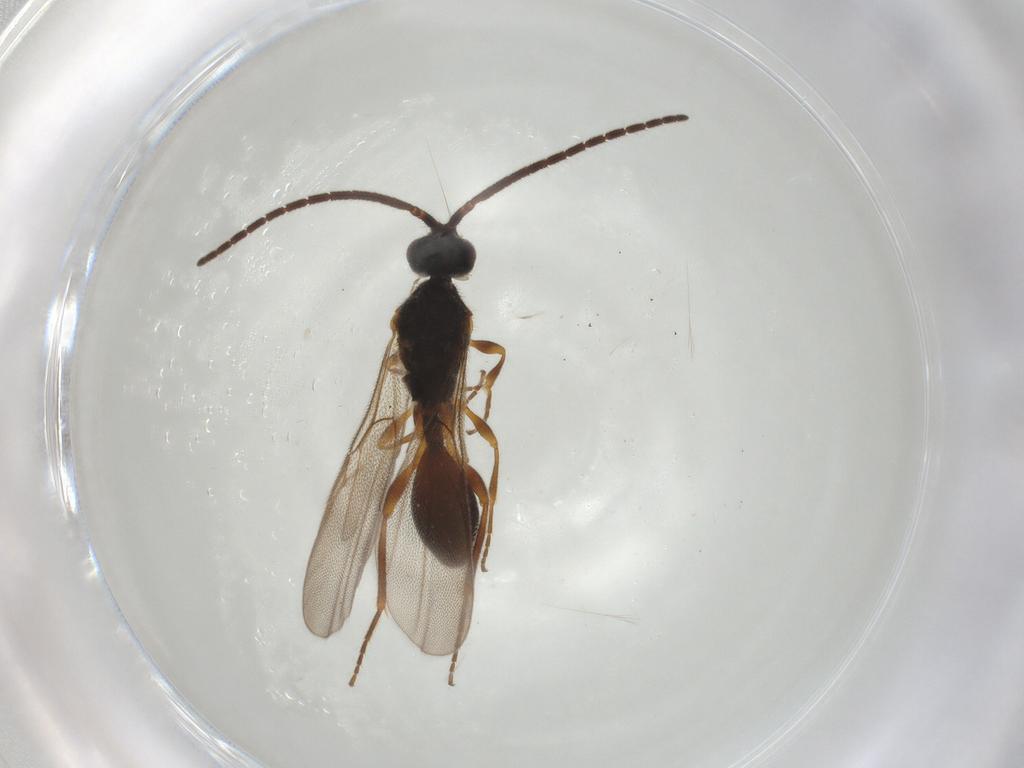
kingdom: Animalia
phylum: Arthropoda
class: Insecta
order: Hymenoptera
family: Diapriidae
